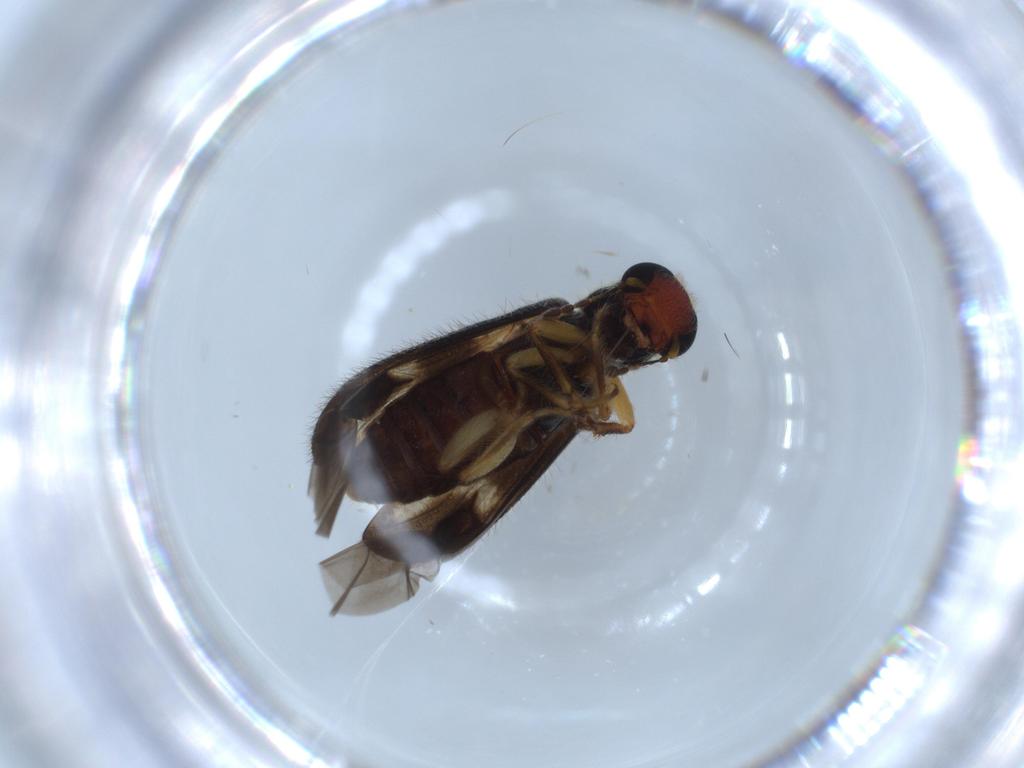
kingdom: Animalia
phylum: Arthropoda
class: Insecta
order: Coleoptera
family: Cleridae
